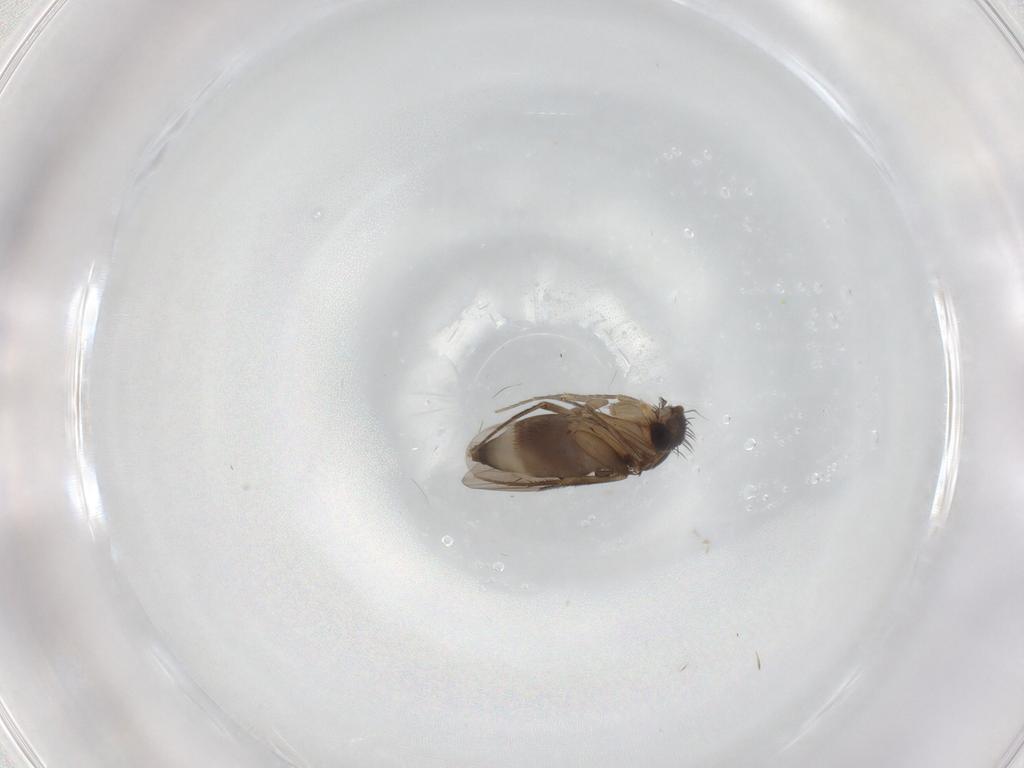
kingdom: Animalia
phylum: Arthropoda
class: Insecta
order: Diptera
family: Phoridae
